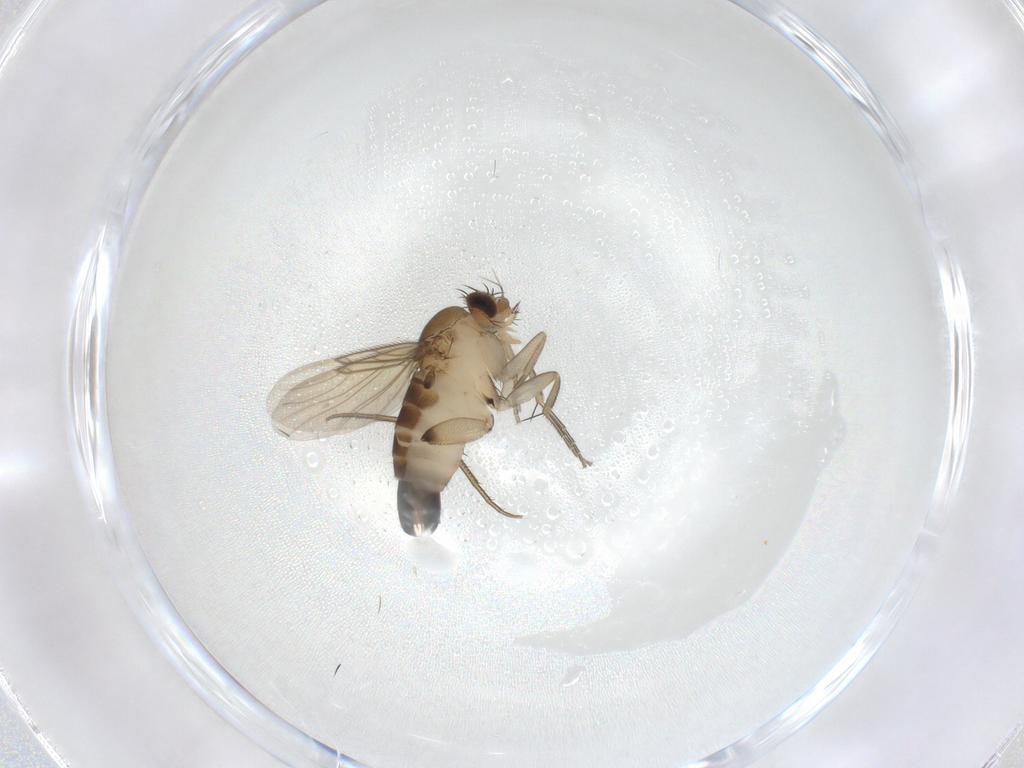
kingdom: Animalia
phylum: Arthropoda
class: Insecta
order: Diptera
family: Phoridae
